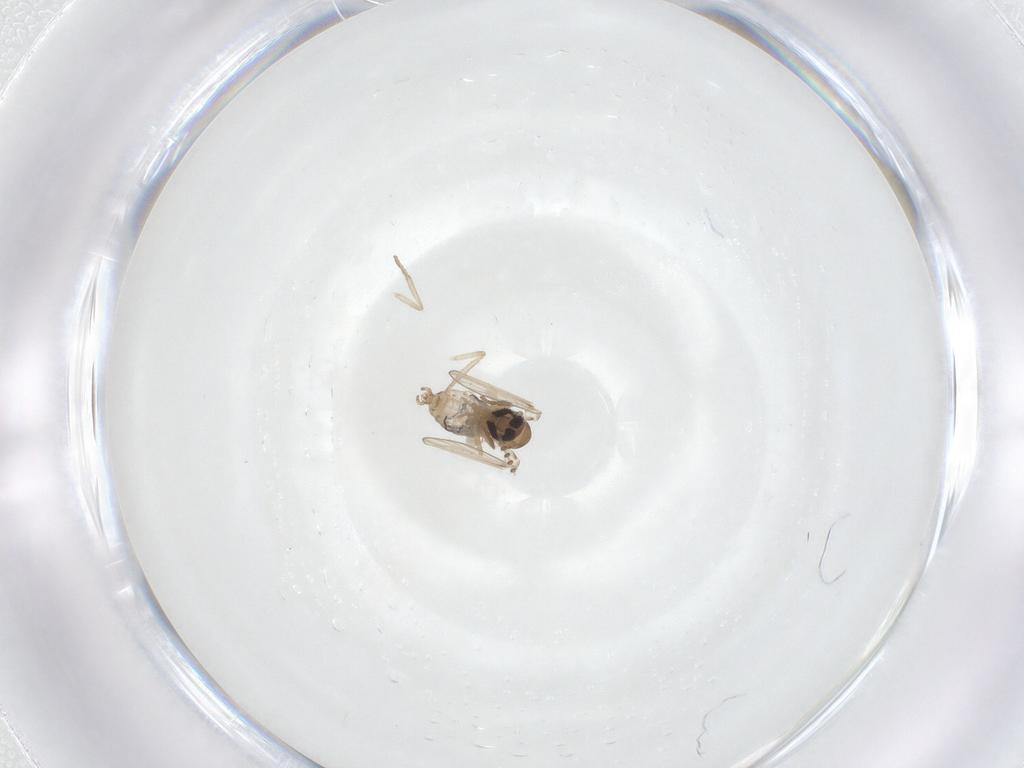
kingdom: Animalia
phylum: Arthropoda
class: Insecta
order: Diptera
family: Psychodidae
